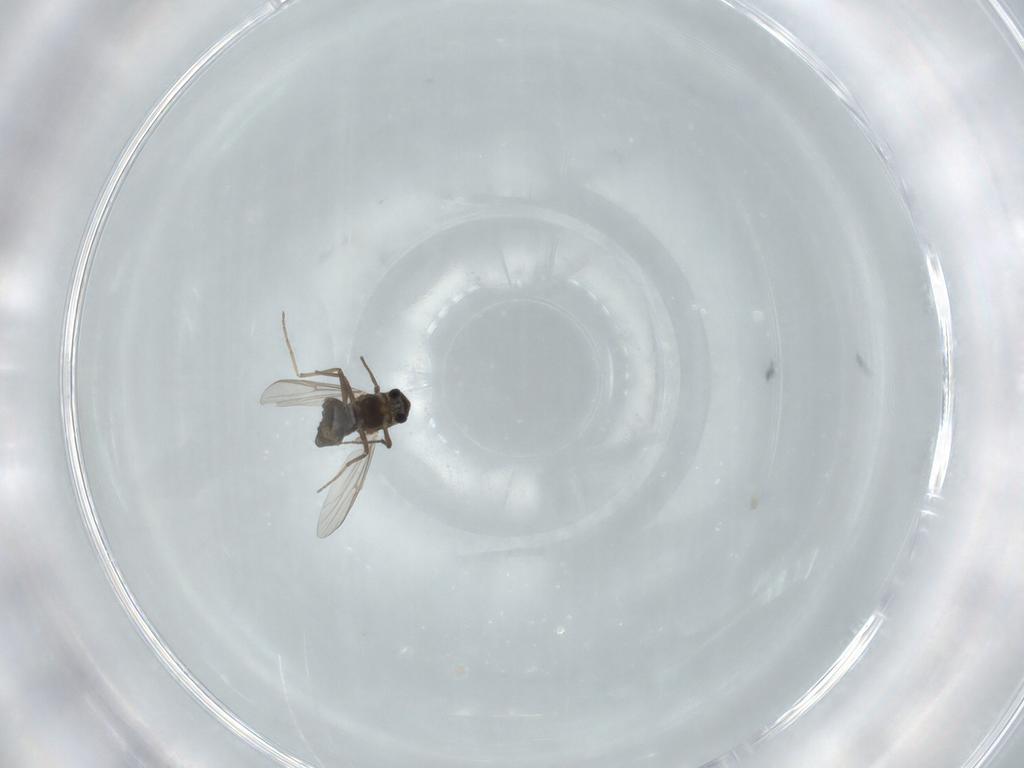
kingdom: Animalia
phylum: Arthropoda
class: Insecta
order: Diptera
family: Chironomidae
